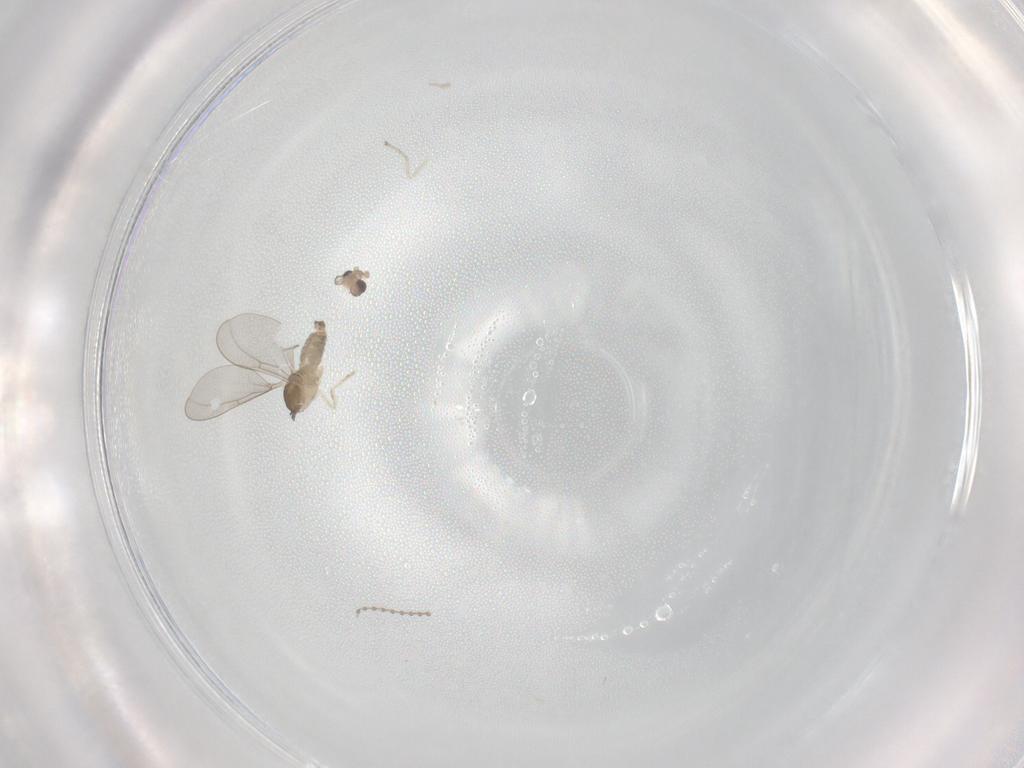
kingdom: Animalia
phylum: Arthropoda
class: Insecta
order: Diptera
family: Cecidomyiidae
